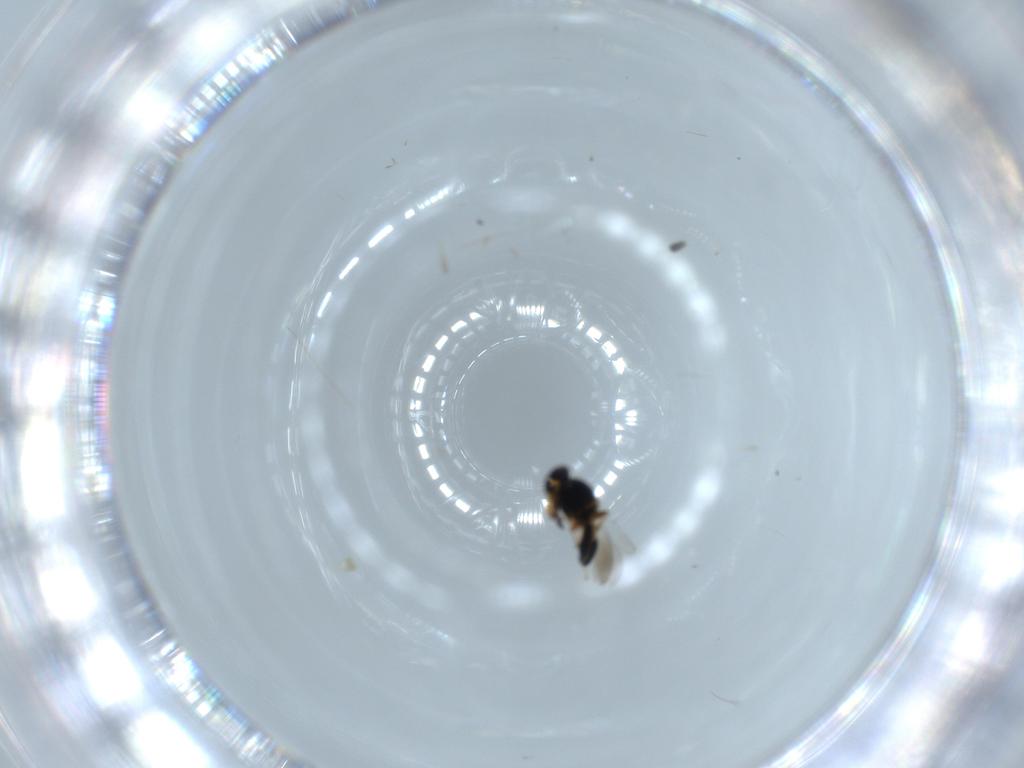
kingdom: Animalia
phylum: Arthropoda
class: Insecta
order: Hymenoptera
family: Platygastridae
